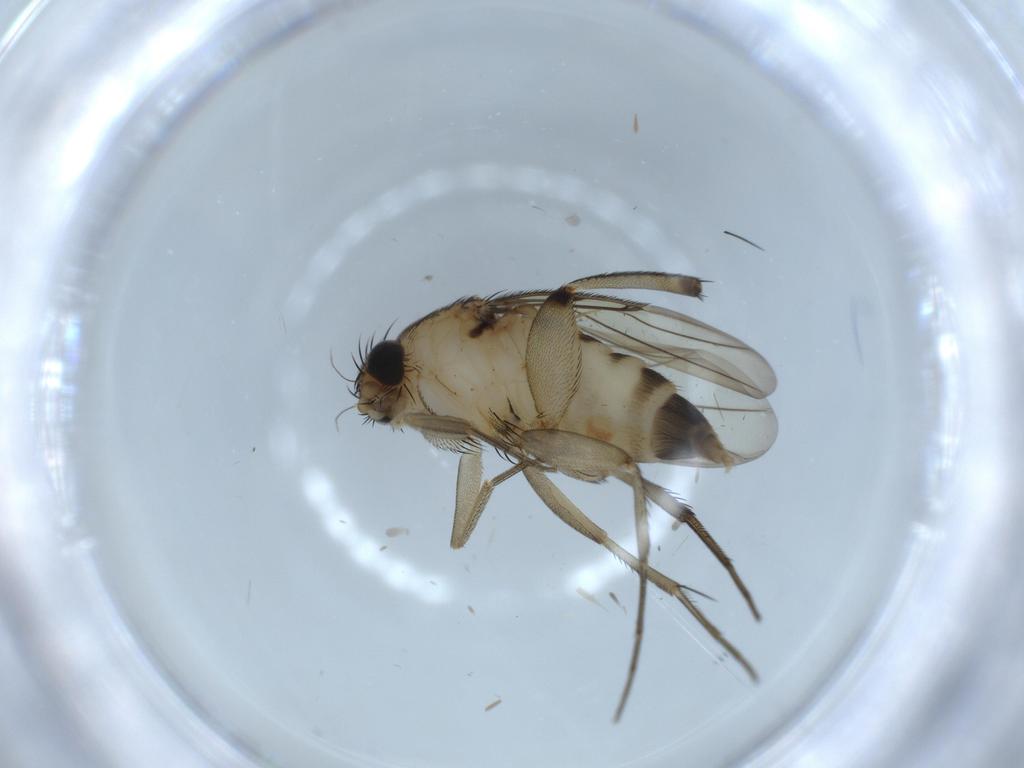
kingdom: Animalia
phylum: Arthropoda
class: Insecta
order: Diptera
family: Phoridae
